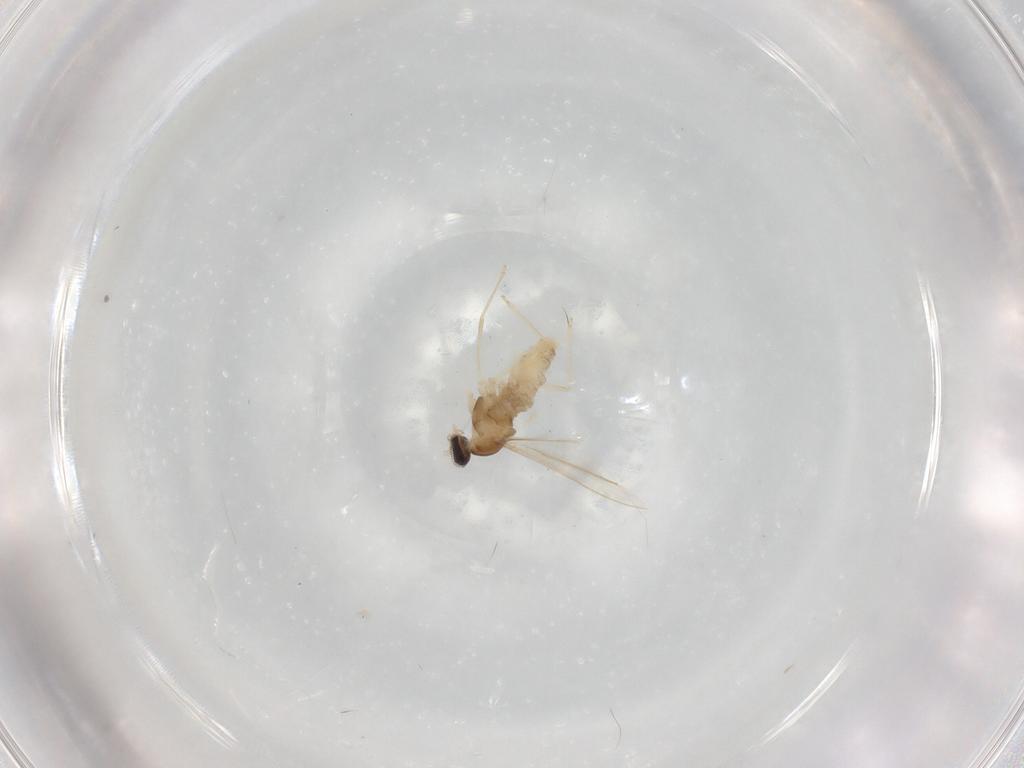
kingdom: Animalia
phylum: Arthropoda
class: Insecta
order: Diptera
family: Cecidomyiidae
